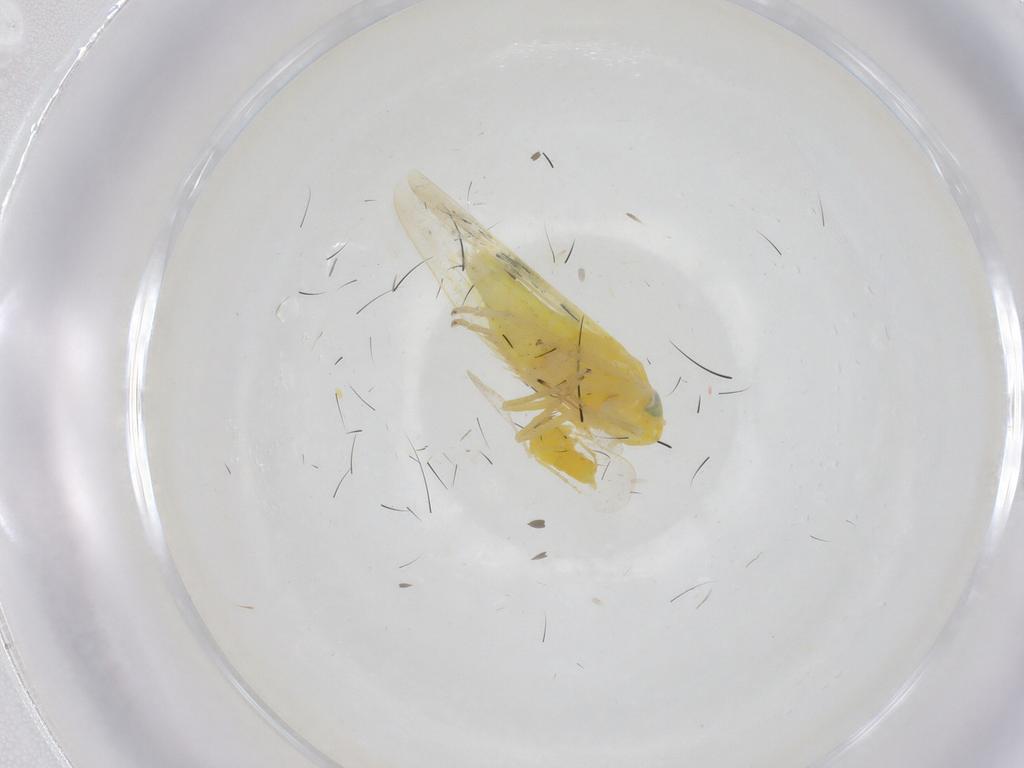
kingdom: Animalia
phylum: Arthropoda
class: Insecta
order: Hemiptera
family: Aleyrodidae
